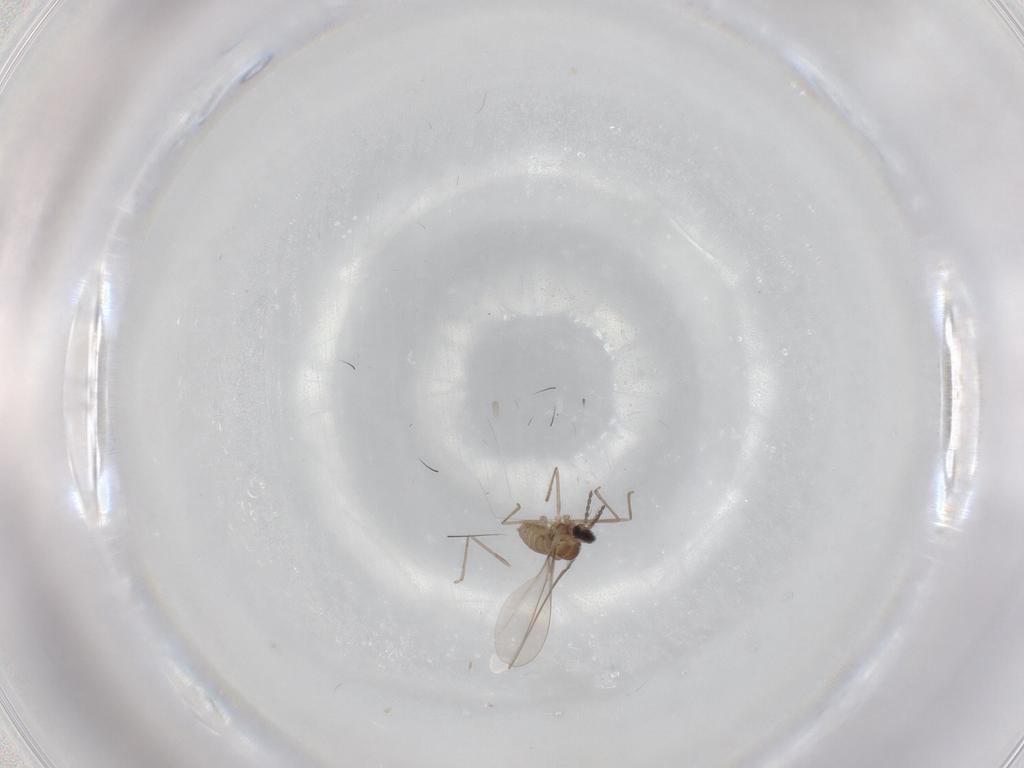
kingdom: Animalia
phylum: Arthropoda
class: Insecta
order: Diptera
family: Cecidomyiidae
